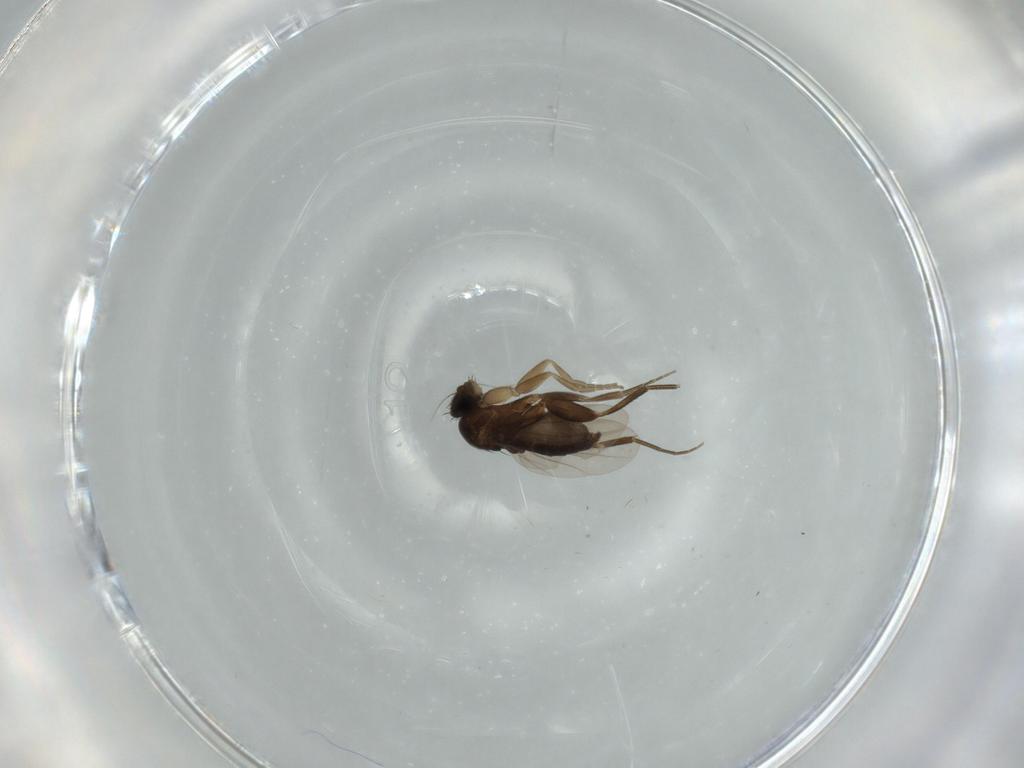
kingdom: Animalia
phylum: Arthropoda
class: Insecta
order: Diptera
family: Phoridae
